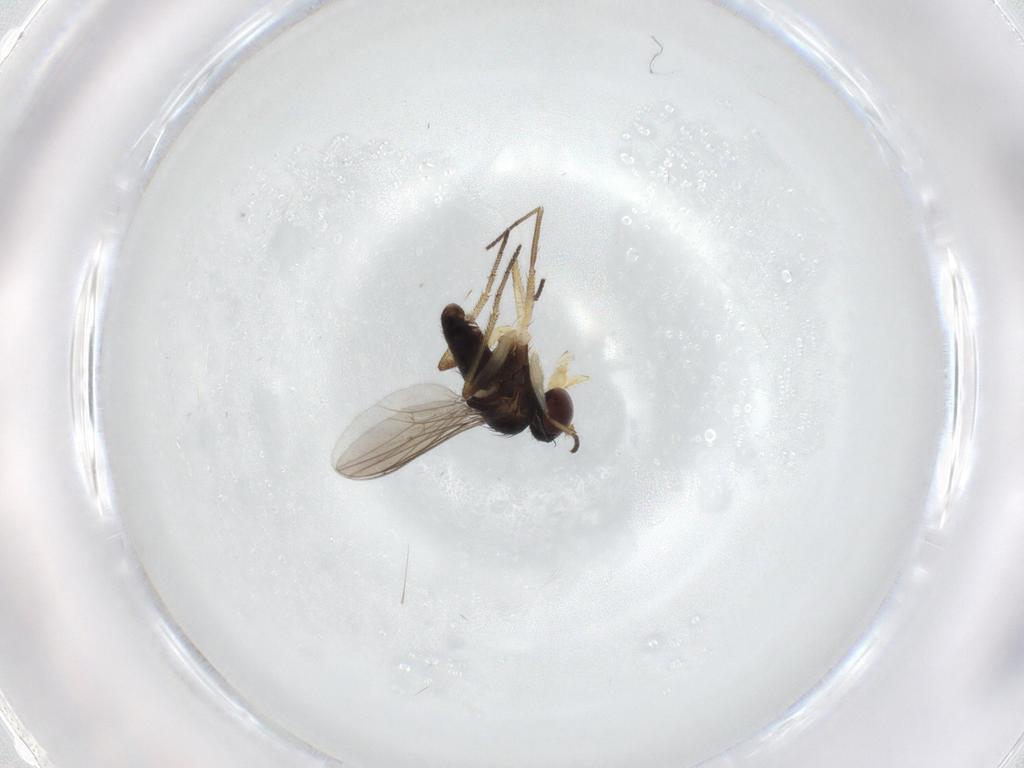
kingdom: Animalia
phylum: Arthropoda
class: Insecta
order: Diptera
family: Dolichopodidae
